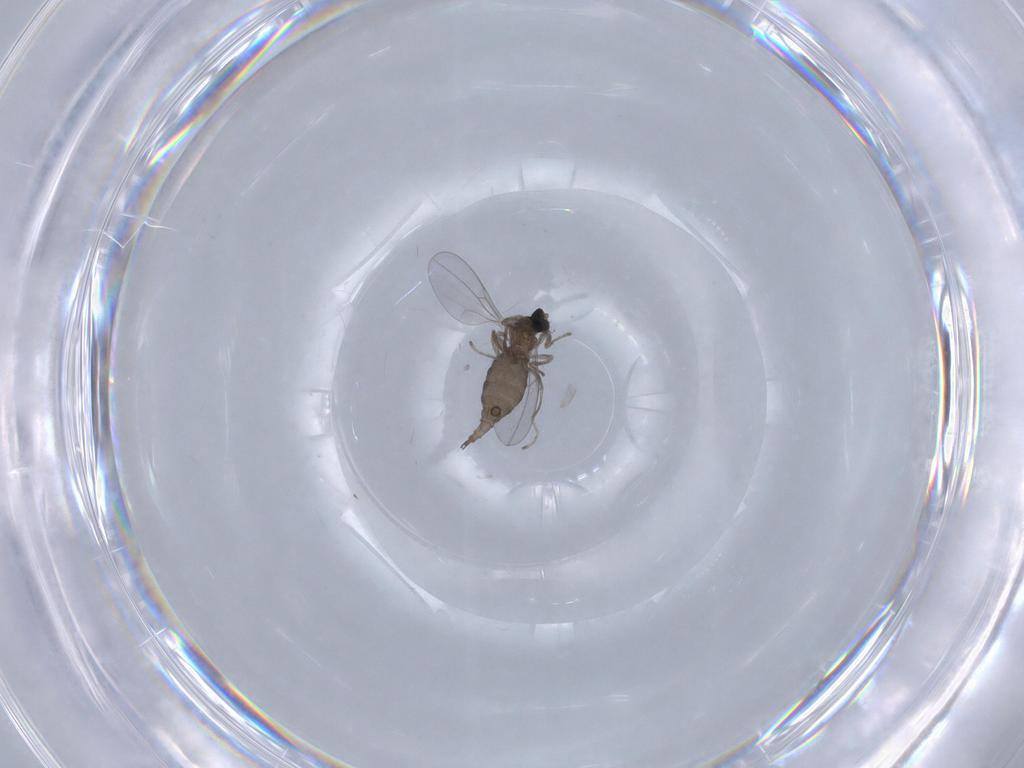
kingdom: Animalia
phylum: Arthropoda
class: Insecta
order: Diptera
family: Cecidomyiidae
